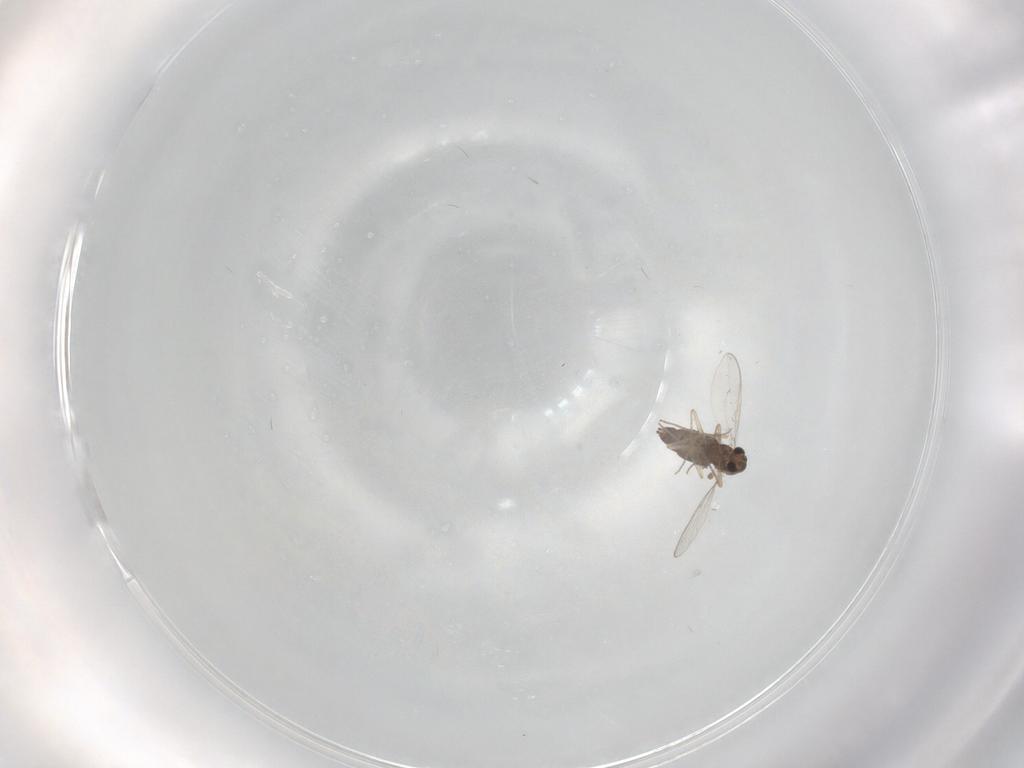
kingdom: Animalia
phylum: Arthropoda
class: Insecta
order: Diptera
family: Chironomidae
